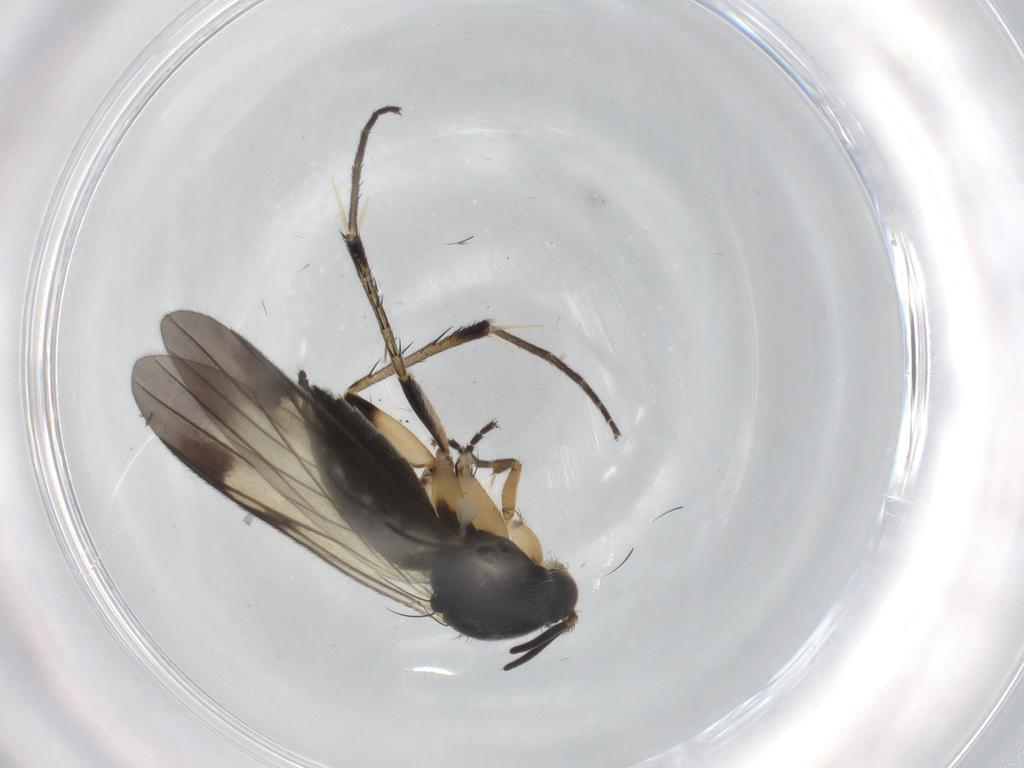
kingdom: Animalia
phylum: Arthropoda
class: Insecta
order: Diptera
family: Mycetophilidae
